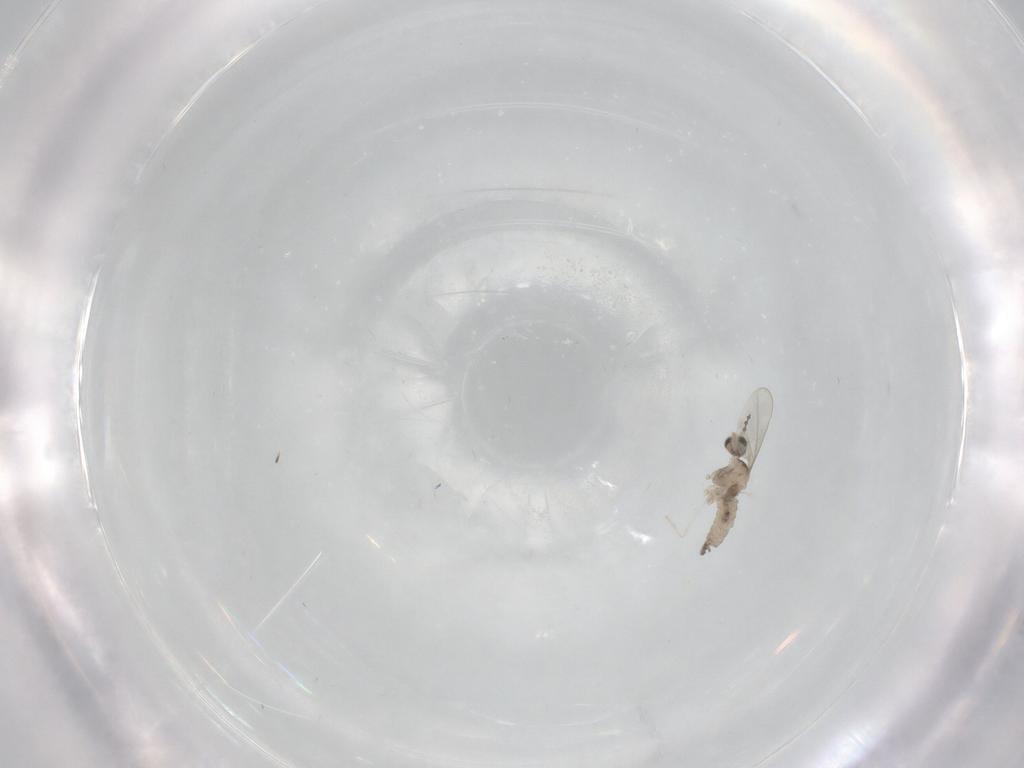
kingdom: Animalia
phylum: Arthropoda
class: Insecta
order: Diptera
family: Cecidomyiidae
